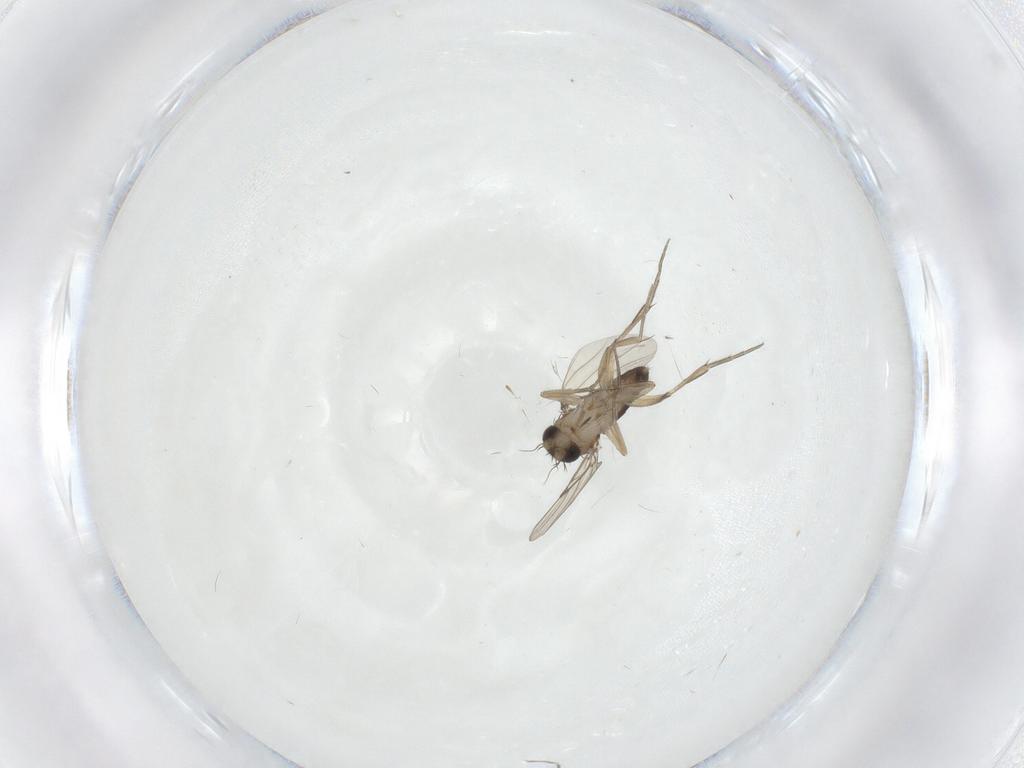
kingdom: Animalia
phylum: Arthropoda
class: Insecta
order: Diptera
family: Phoridae
